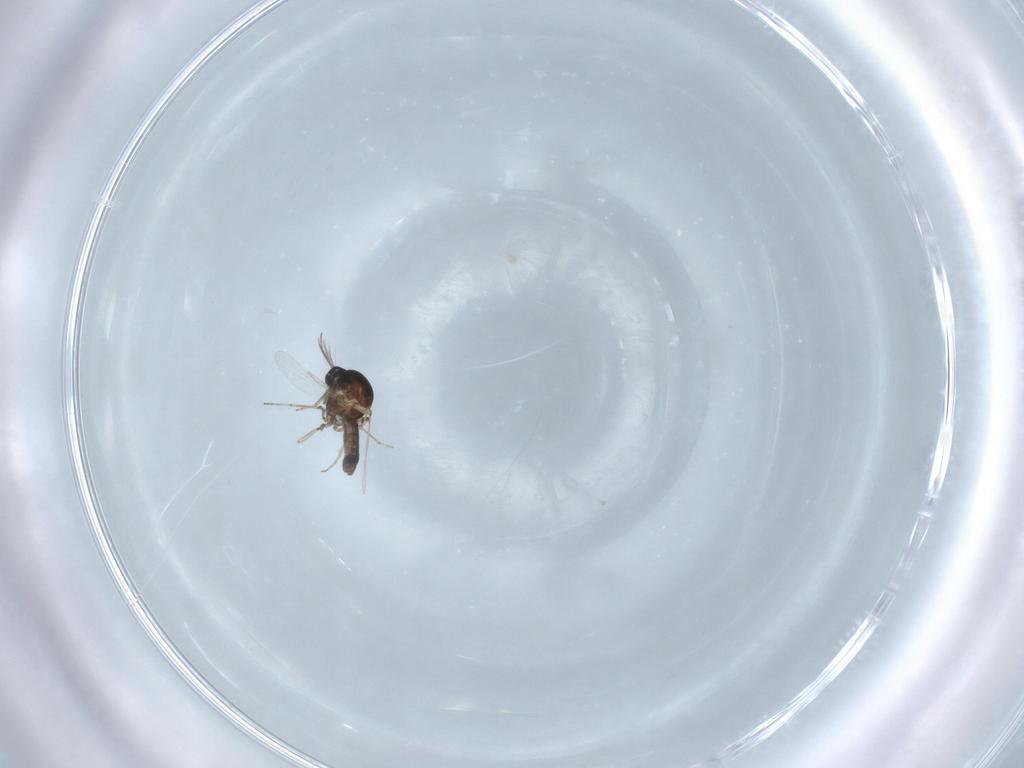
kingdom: Animalia
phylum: Arthropoda
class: Insecta
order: Diptera
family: Ceratopogonidae
